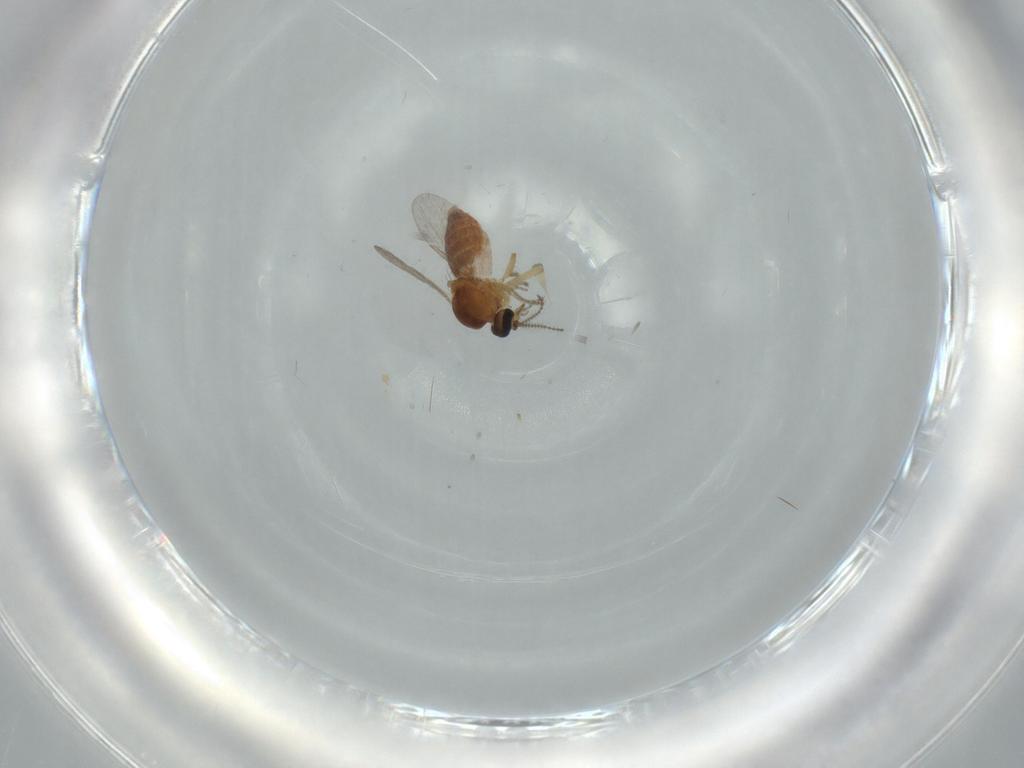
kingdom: Animalia
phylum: Arthropoda
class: Insecta
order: Diptera
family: Ceratopogonidae
